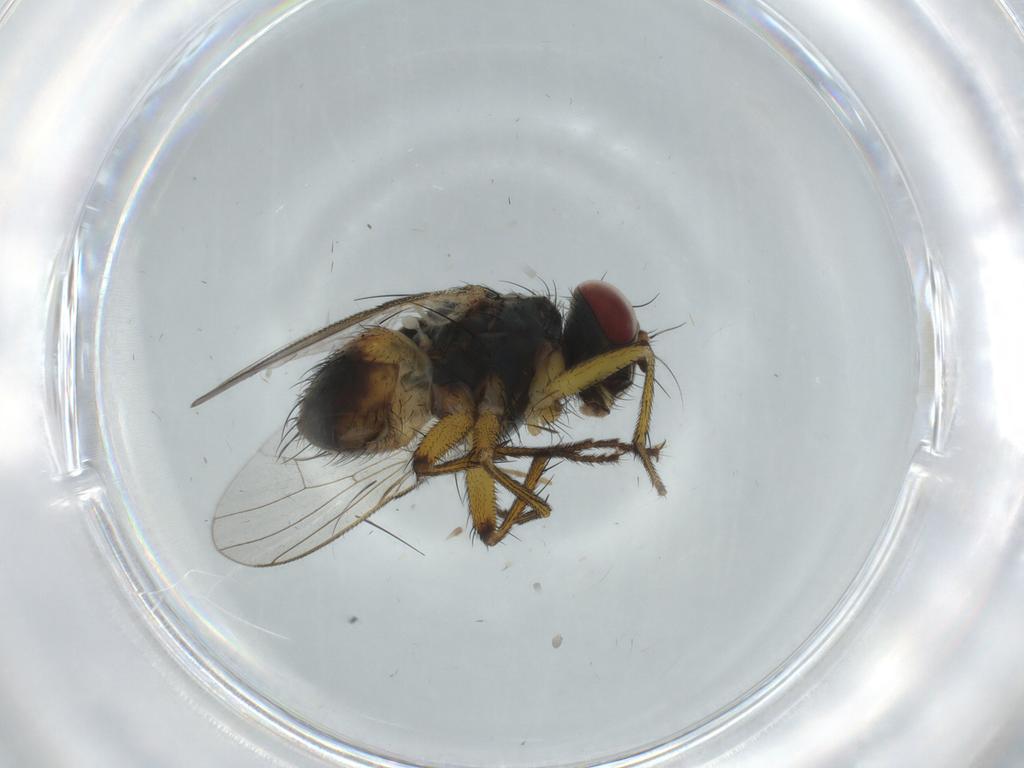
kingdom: Animalia
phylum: Arthropoda
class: Insecta
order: Diptera
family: Muscidae
